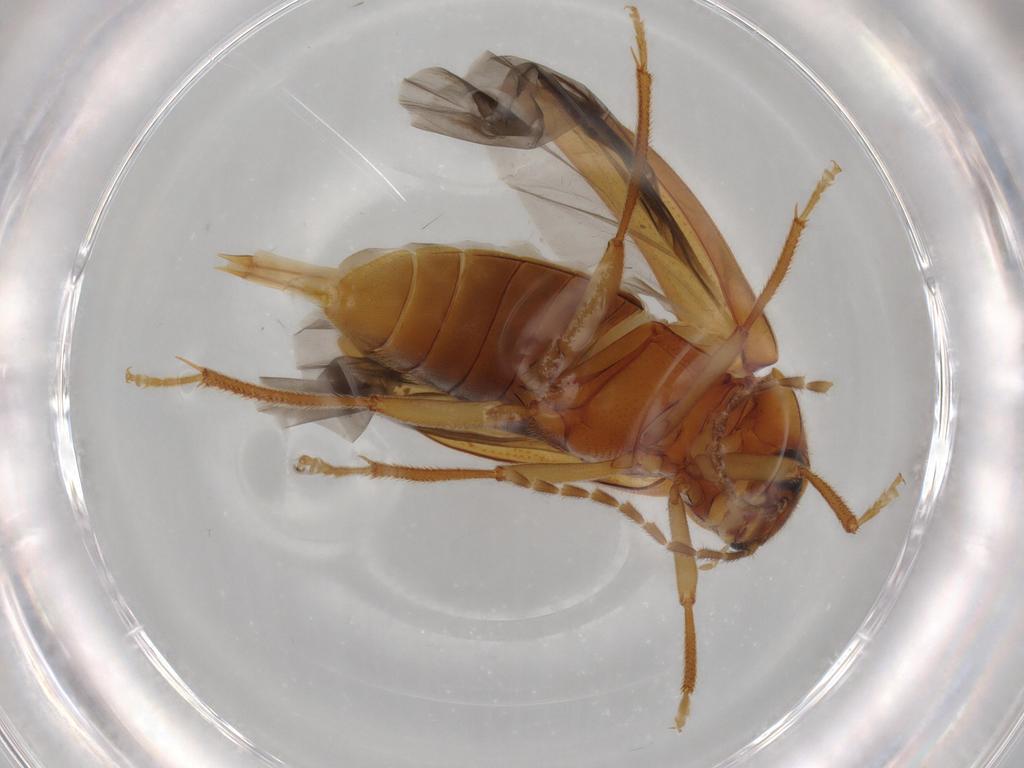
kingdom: Animalia
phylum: Arthropoda
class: Insecta
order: Coleoptera
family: Ptilodactylidae
